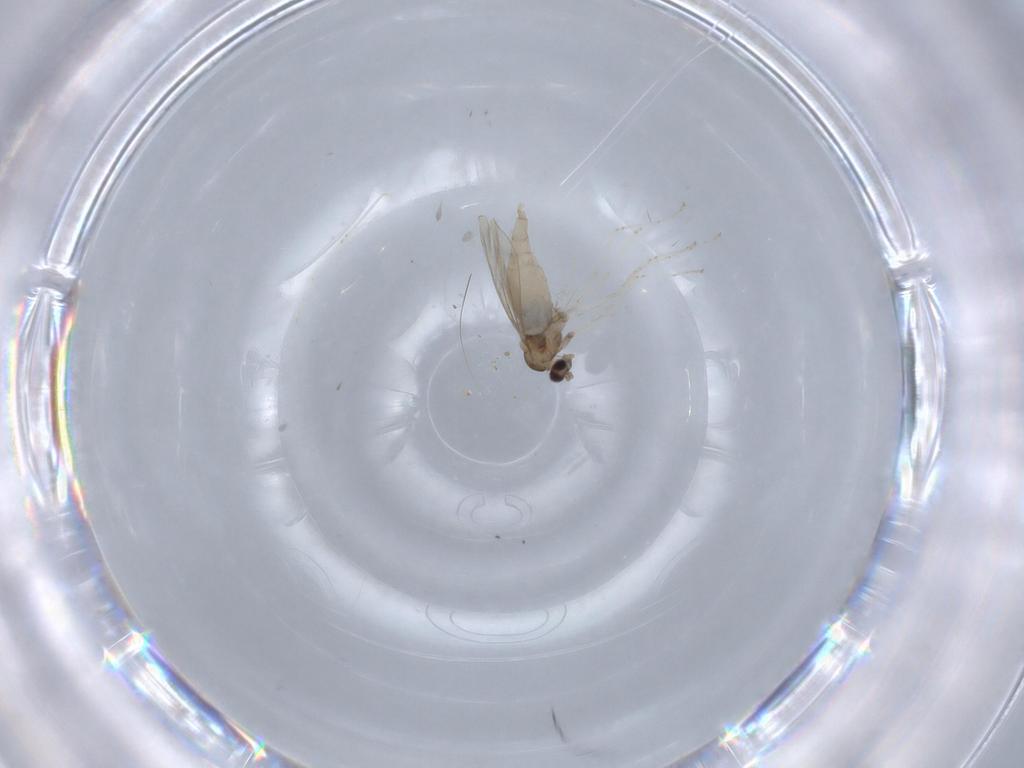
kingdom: Animalia
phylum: Arthropoda
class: Insecta
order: Diptera
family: Cecidomyiidae
